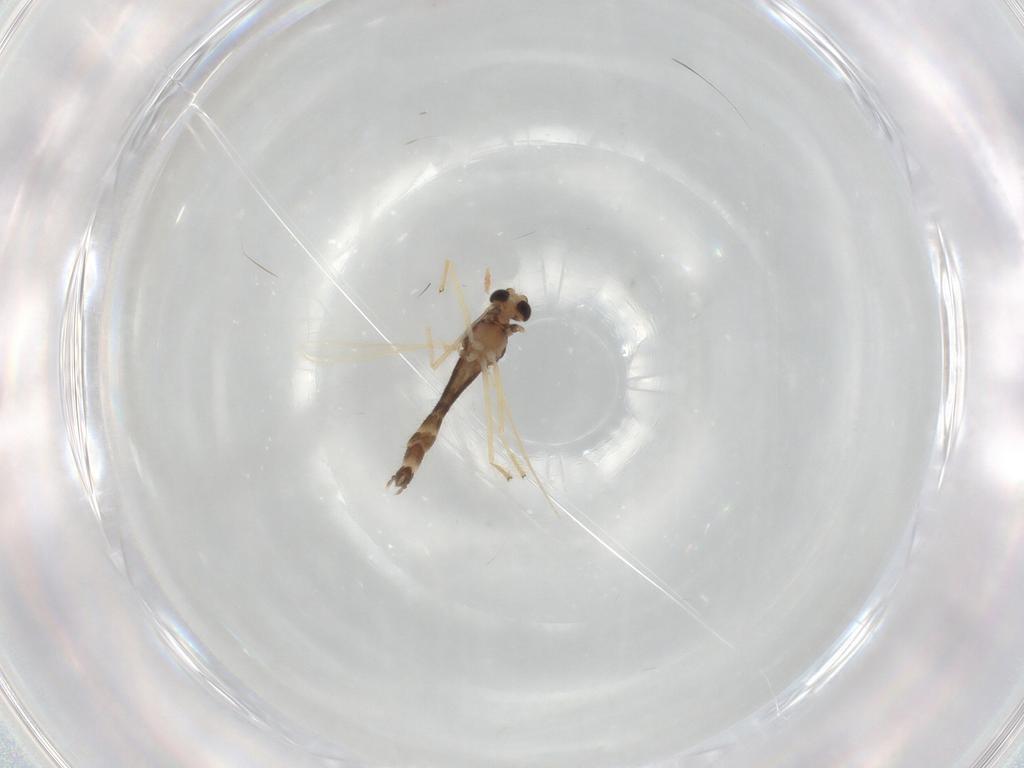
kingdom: Animalia
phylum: Arthropoda
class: Insecta
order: Diptera
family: Chironomidae
